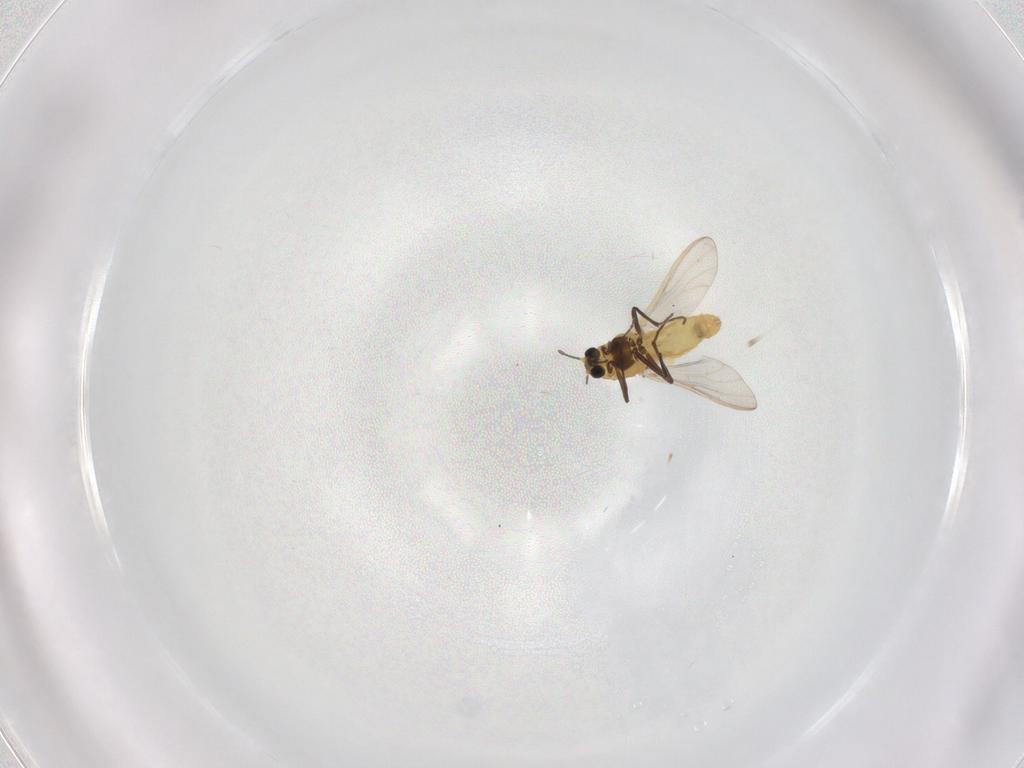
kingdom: Animalia
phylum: Arthropoda
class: Insecta
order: Diptera
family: Chironomidae
